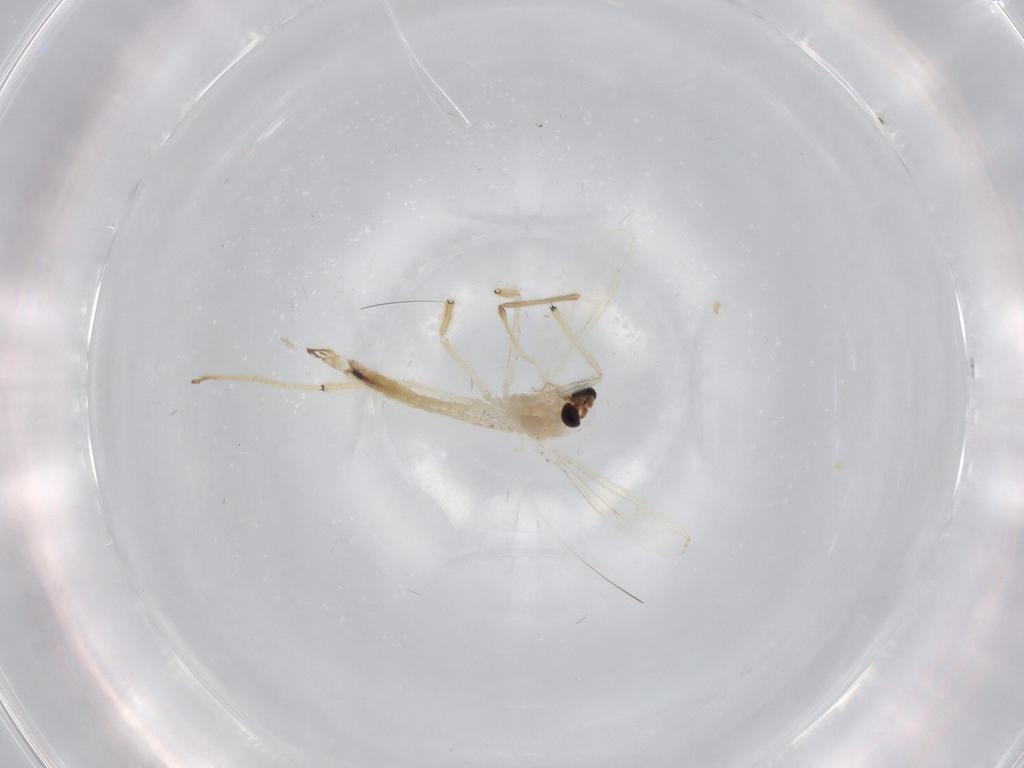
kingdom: Animalia
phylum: Arthropoda
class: Insecta
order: Diptera
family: Chironomidae
